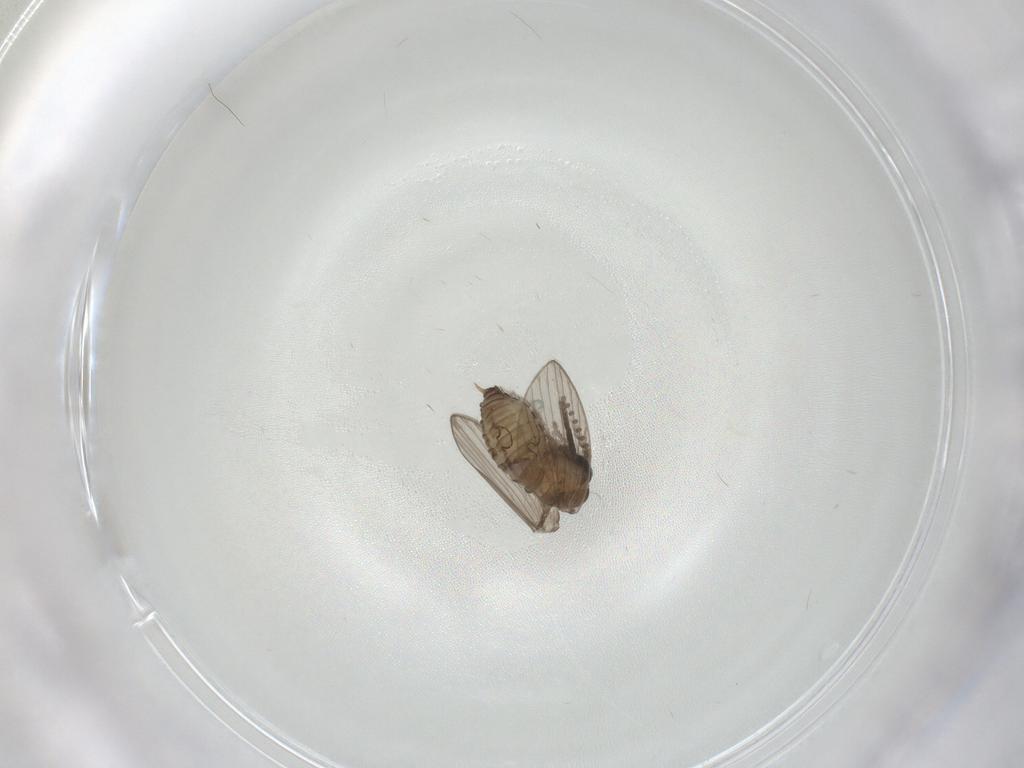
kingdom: Animalia
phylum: Arthropoda
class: Insecta
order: Diptera
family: Psychodidae
